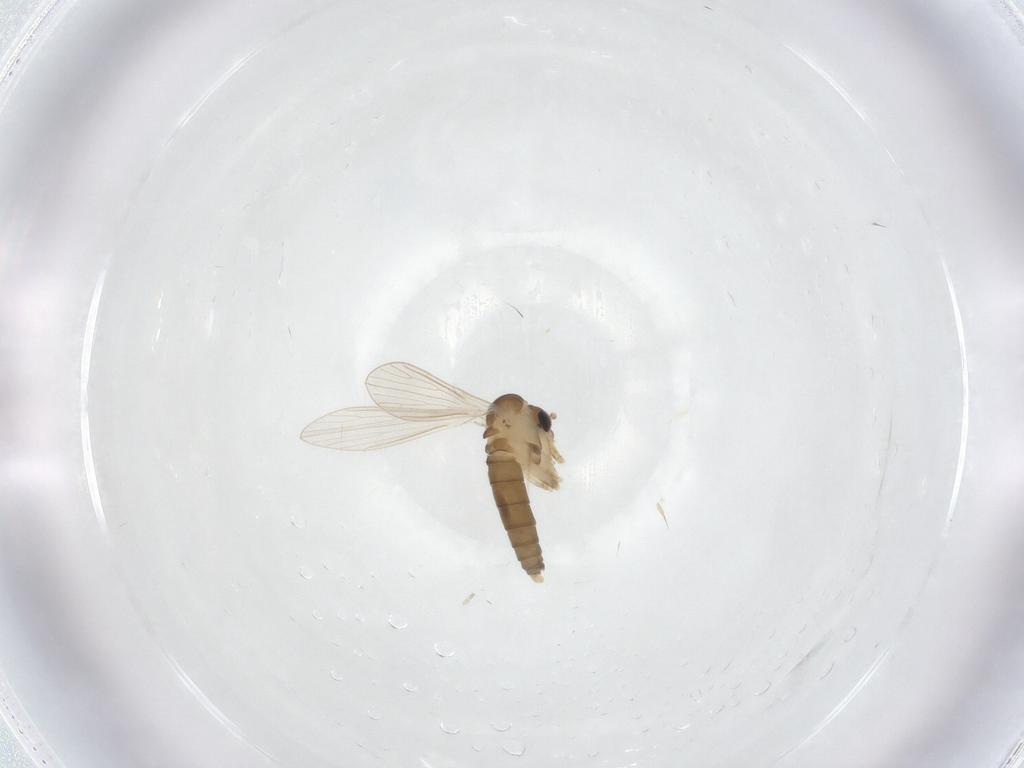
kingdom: Animalia
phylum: Arthropoda
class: Insecta
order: Diptera
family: Psychodidae
